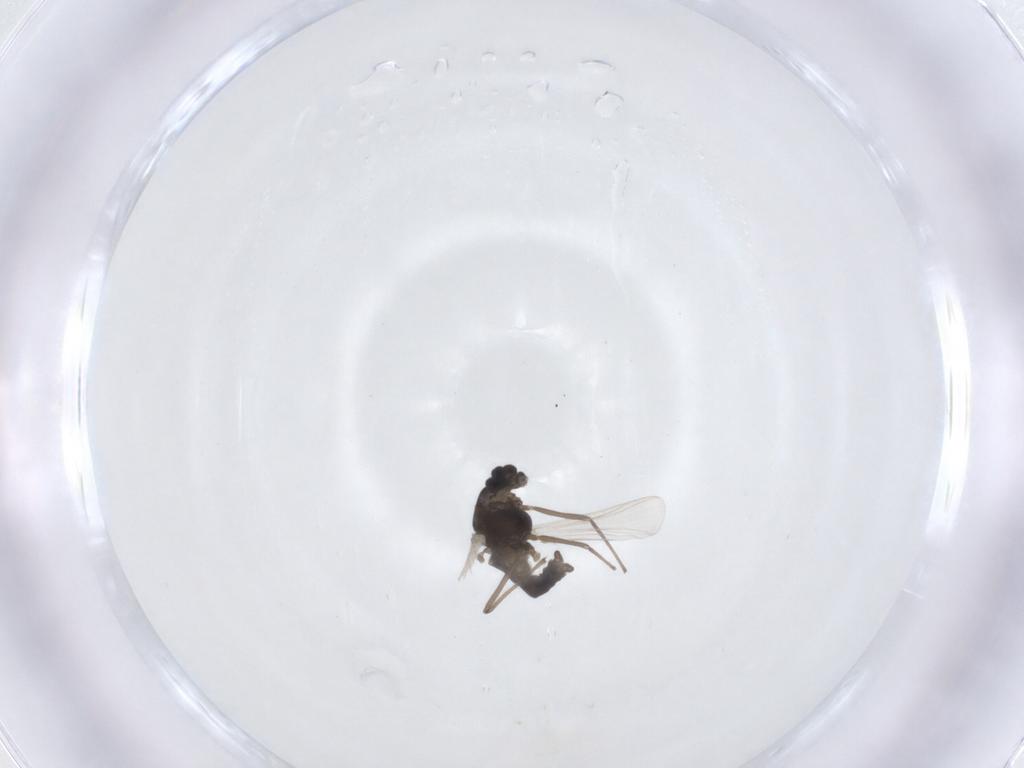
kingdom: Animalia
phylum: Arthropoda
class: Insecta
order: Diptera
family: Chironomidae
